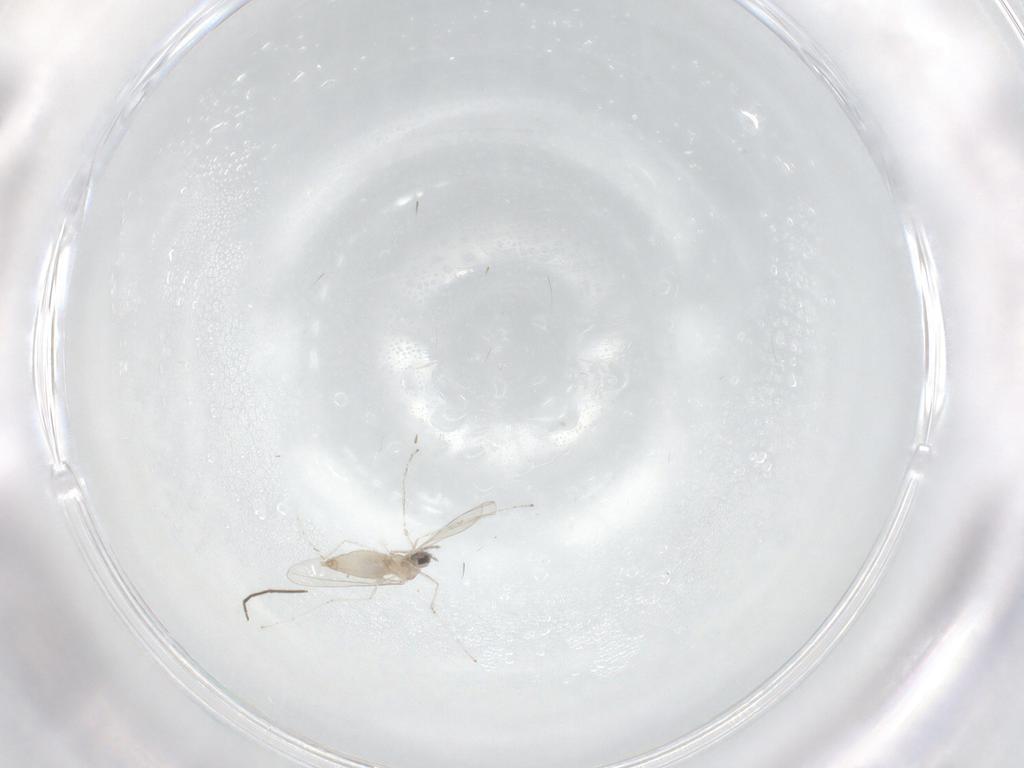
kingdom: Animalia
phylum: Arthropoda
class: Insecta
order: Diptera
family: Chironomidae
